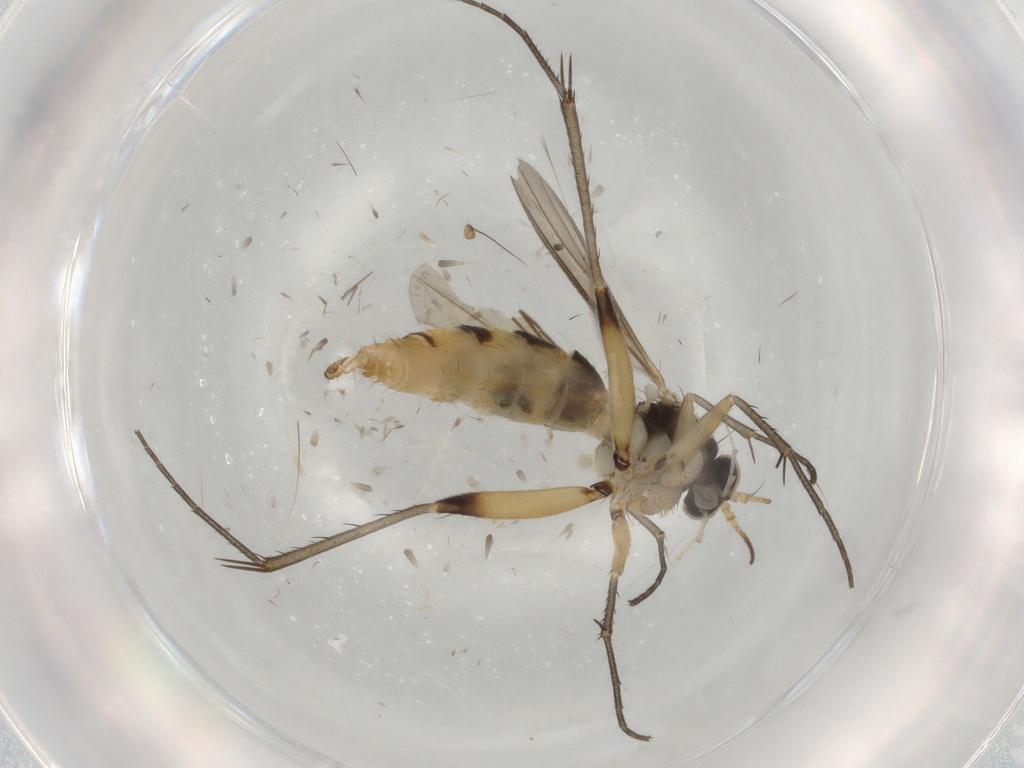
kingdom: Animalia
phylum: Arthropoda
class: Insecta
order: Diptera
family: Mycetophilidae
